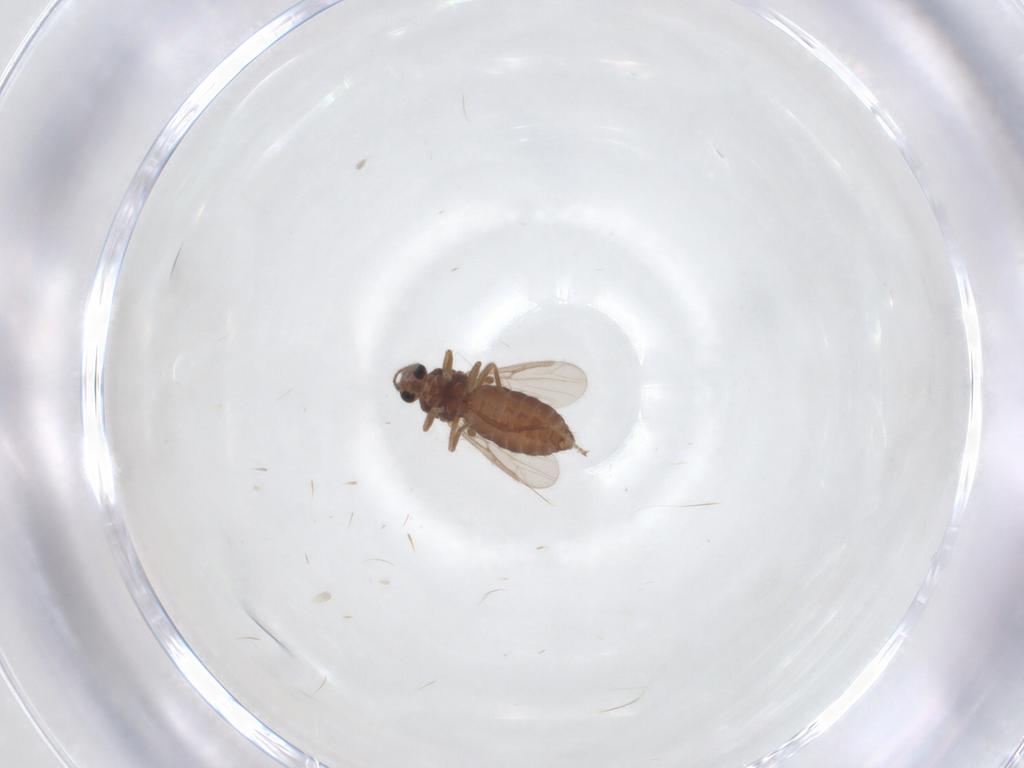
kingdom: Animalia
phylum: Arthropoda
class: Insecta
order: Diptera
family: Ceratopogonidae
